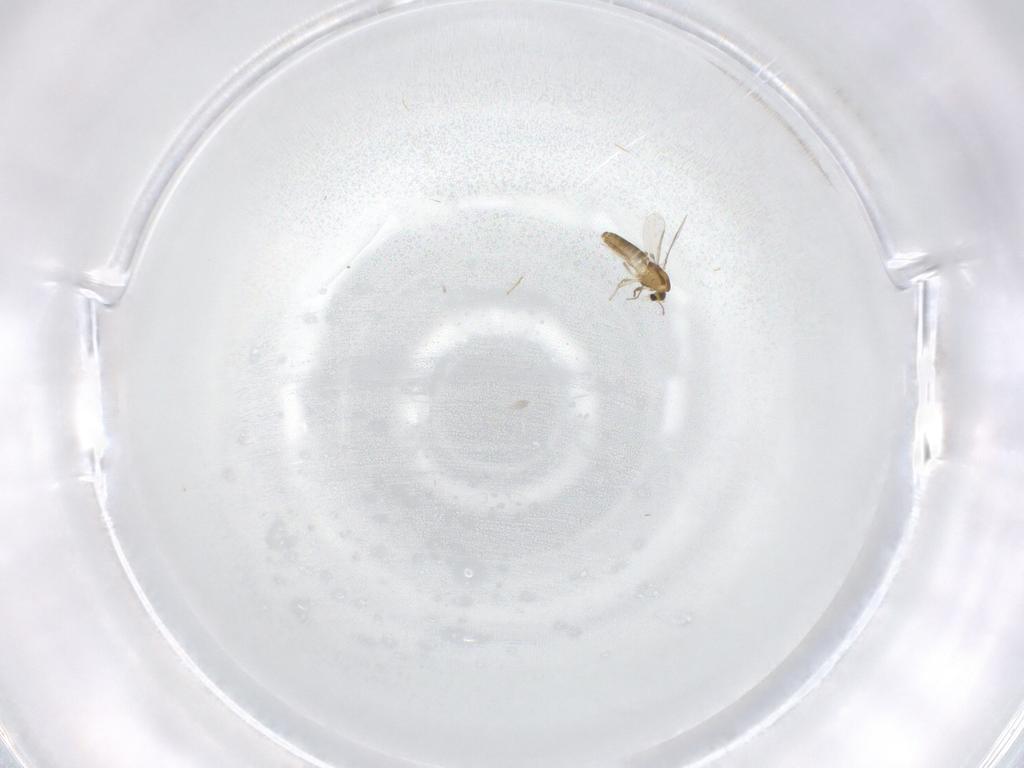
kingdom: Animalia
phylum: Arthropoda
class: Insecta
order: Diptera
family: Chironomidae
